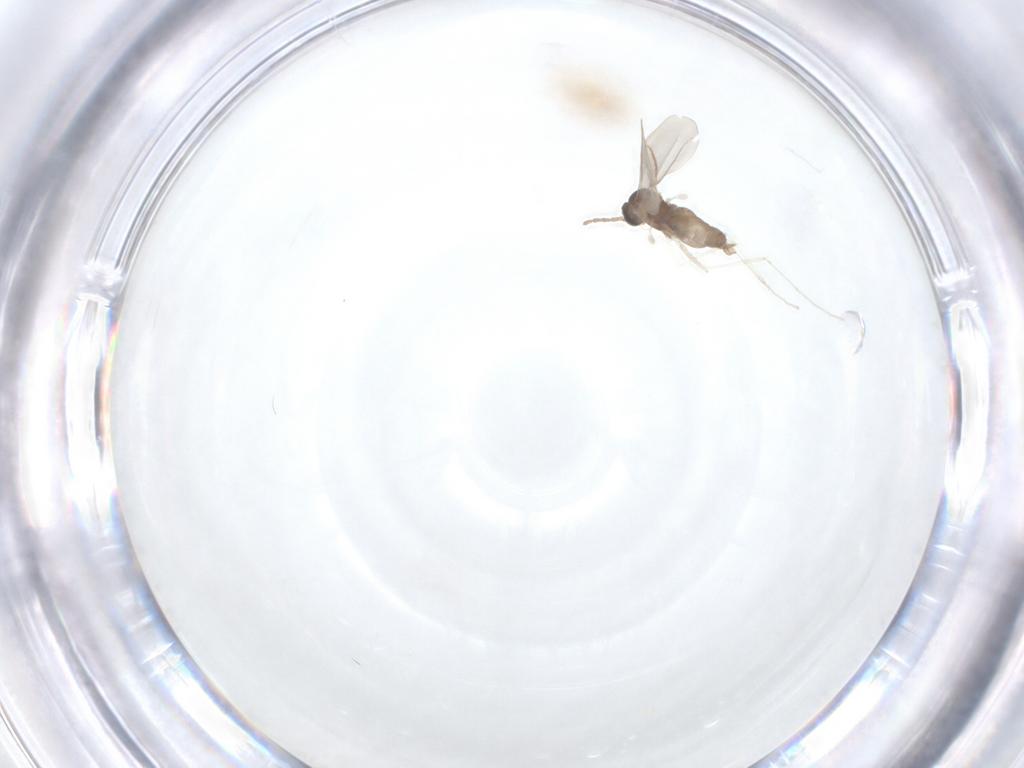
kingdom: Animalia
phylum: Arthropoda
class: Insecta
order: Diptera
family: Cecidomyiidae
